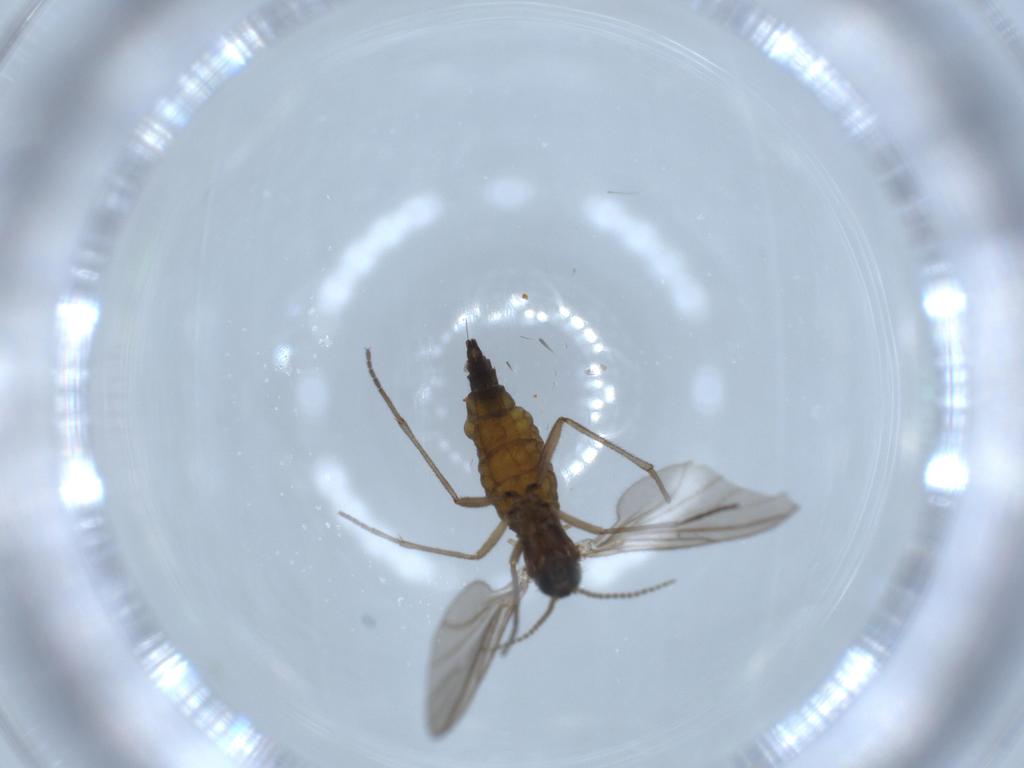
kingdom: Animalia
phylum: Arthropoda
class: Insecta
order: Diptera
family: Sciaridae
